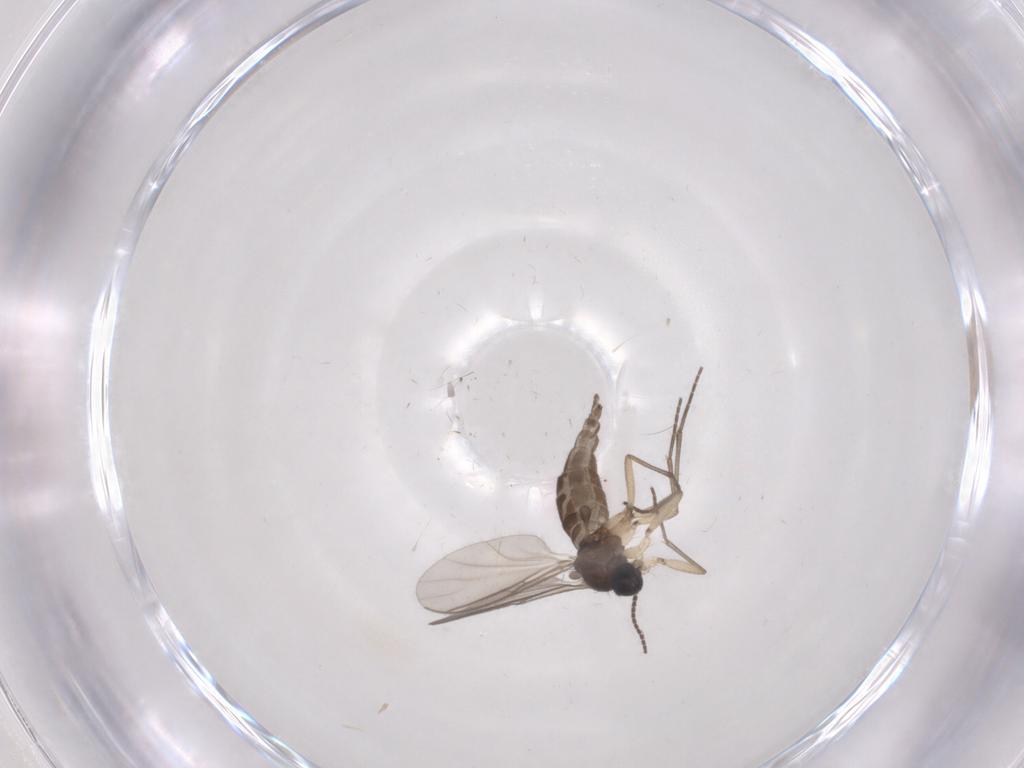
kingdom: Animalia
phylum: Arthropoda
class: Insecta
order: Diptera
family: Sciaridae
